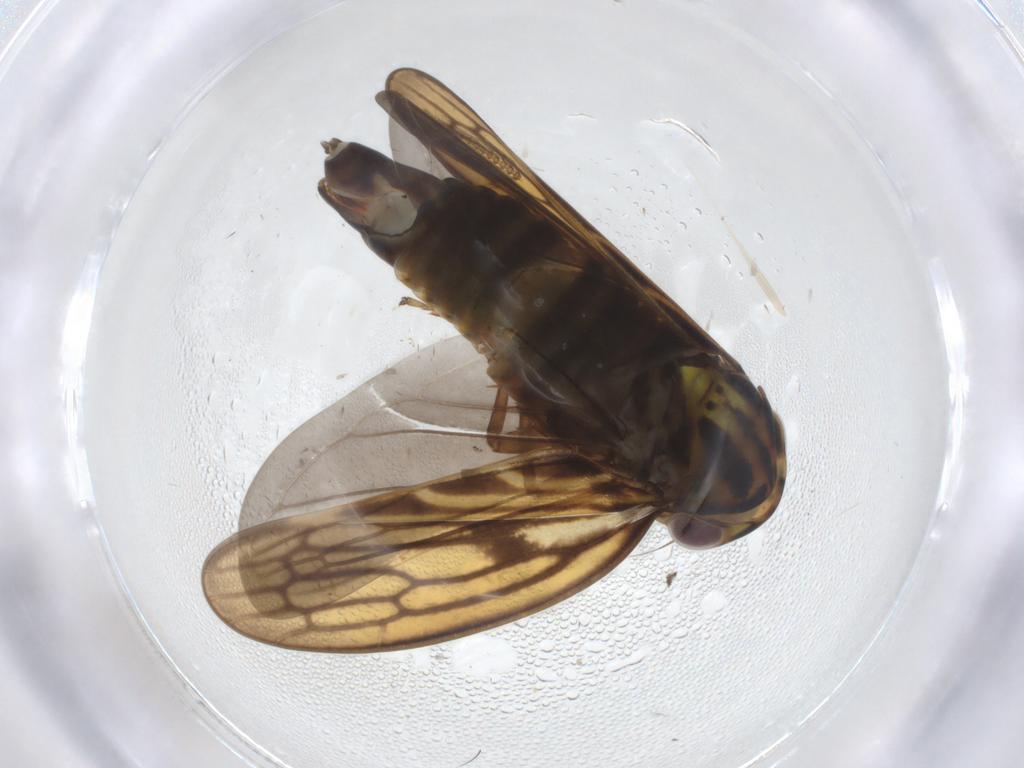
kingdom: Animalia
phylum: Arthropoda
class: Insecta
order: Hemiptera
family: Cicadellidae
